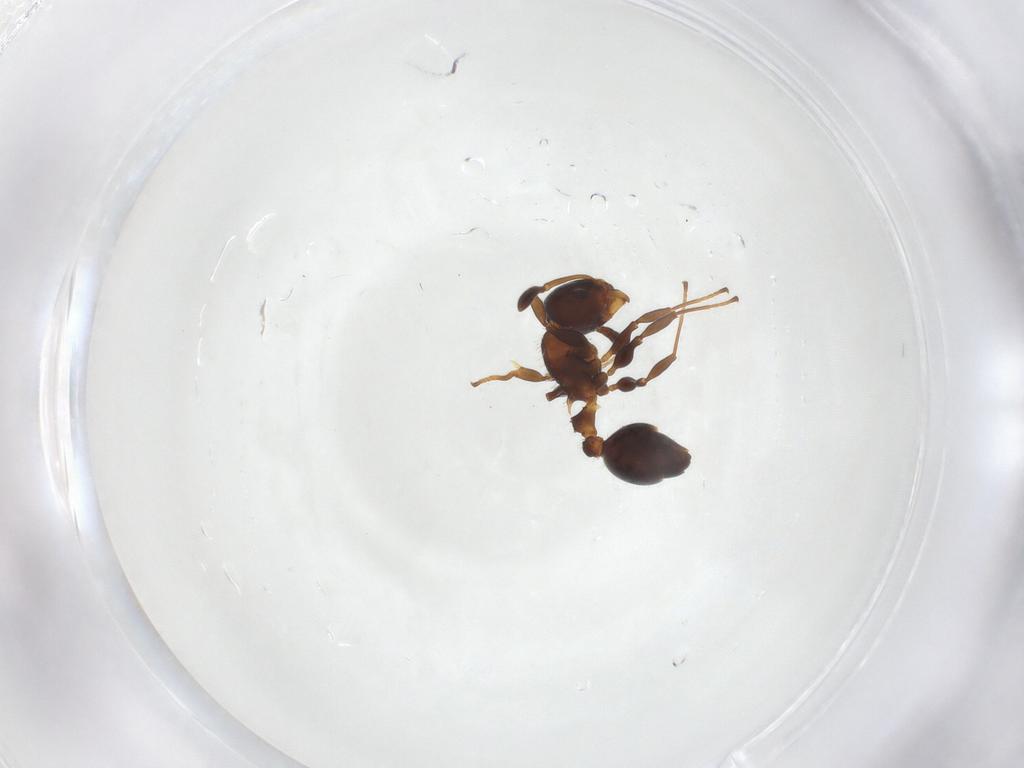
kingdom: Animalia
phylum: Arthropoda
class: Insecta
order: Hymenoptera
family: Formicidae
